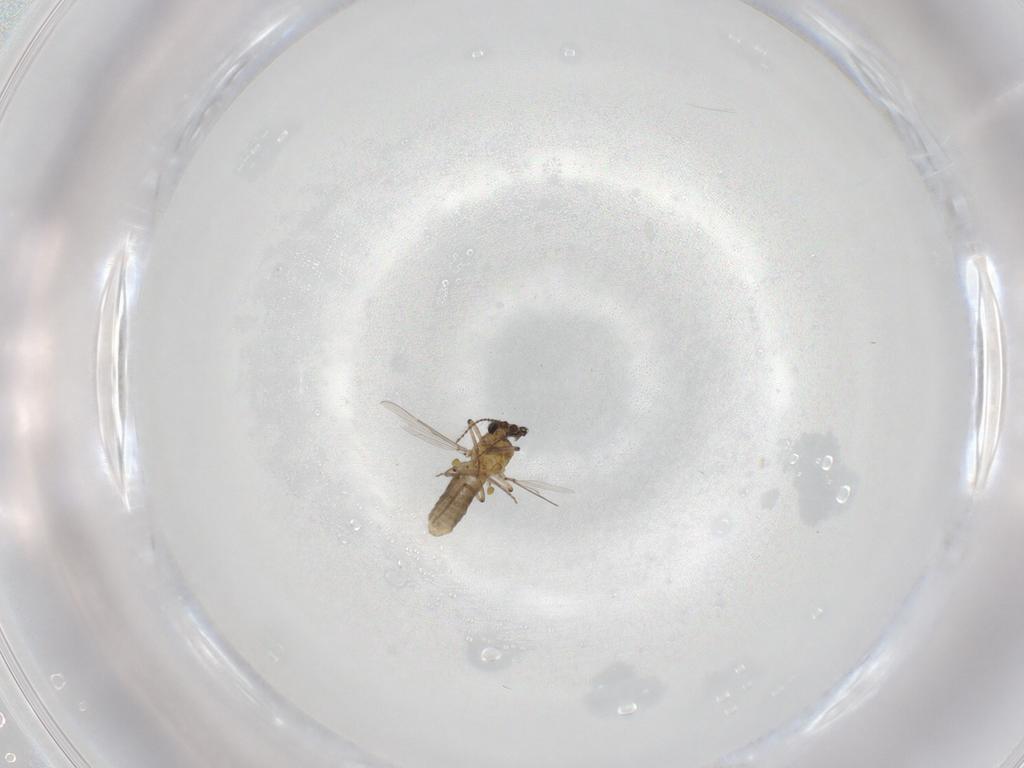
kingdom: Animalia
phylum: Arthropoda
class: Insecta
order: Diptera
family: Ceratopogonidae
